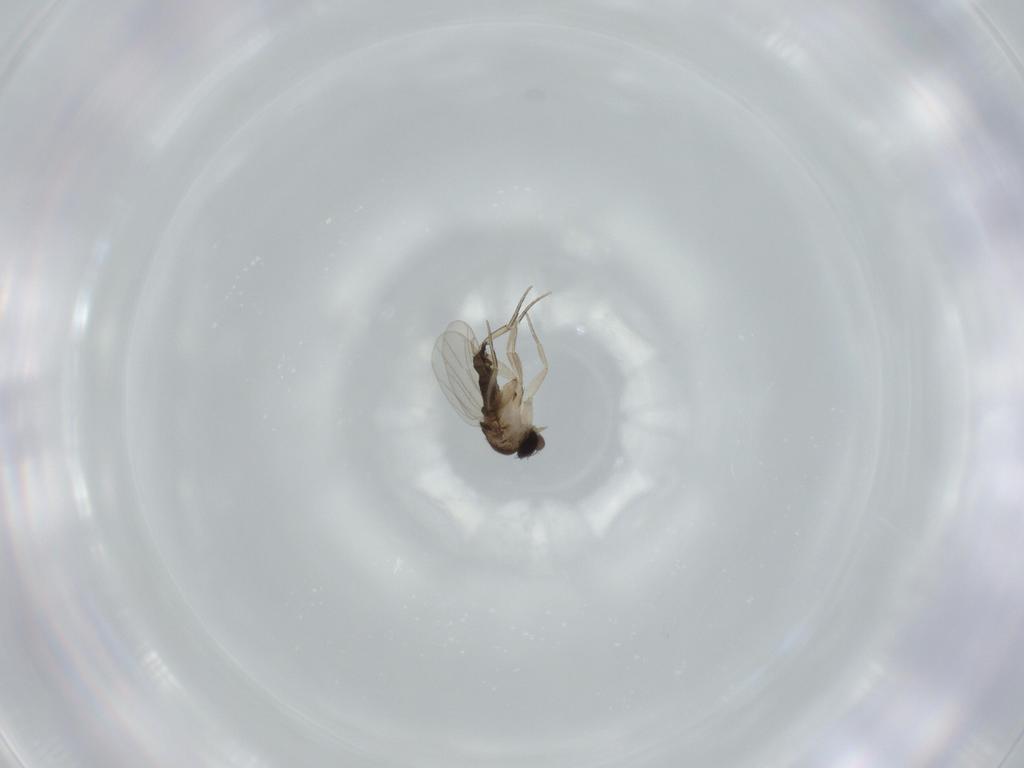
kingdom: Animalia
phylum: Arthropoda
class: Insecta
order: Diptera
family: Phoridae
